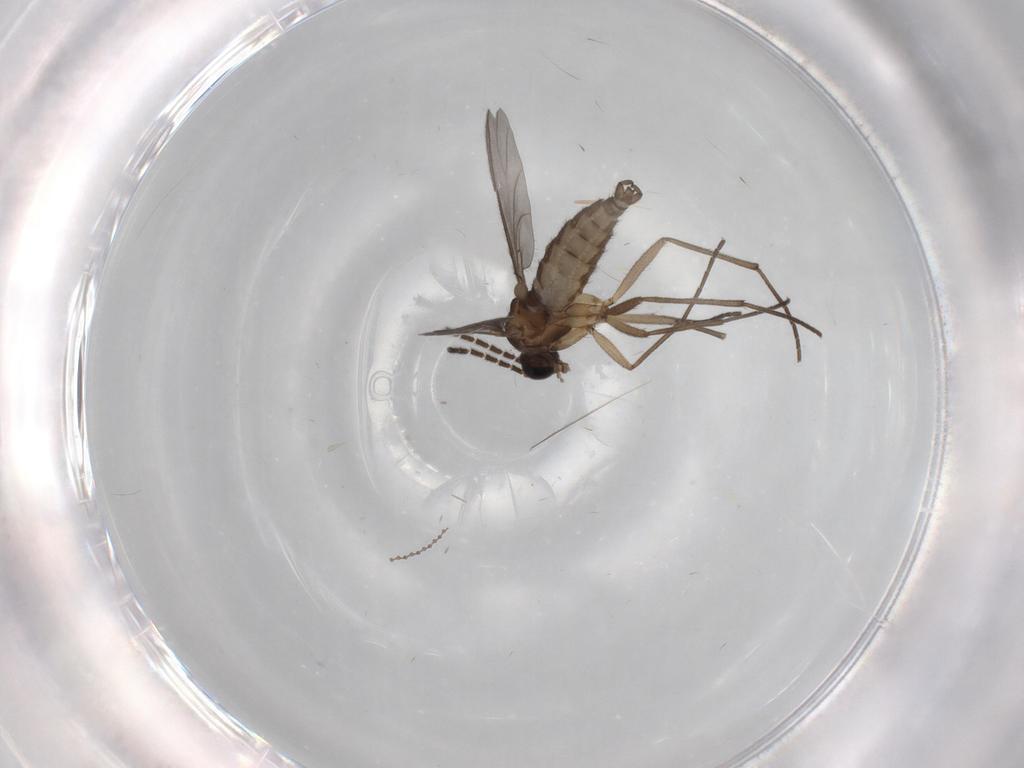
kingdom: Animalia
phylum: Arthropoda
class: Insecta
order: Diptera
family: Sciaridae
